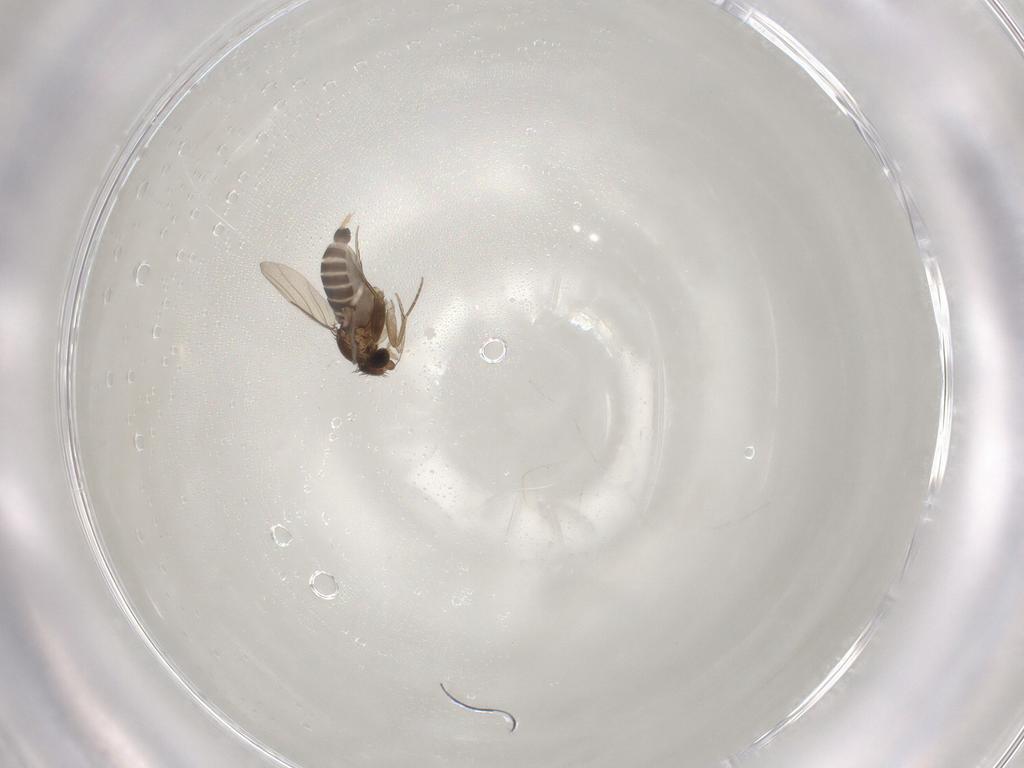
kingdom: Animalia
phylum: Arthropoda
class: Insecta
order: Diptera
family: Phoridae
